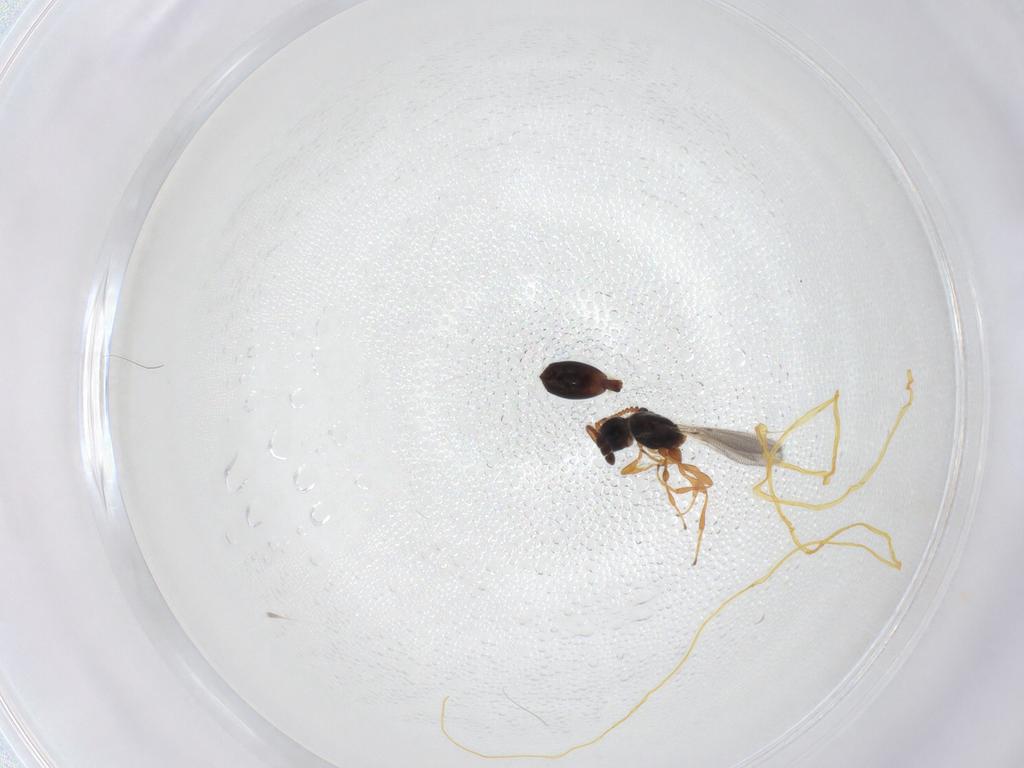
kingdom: Animalia
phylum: Arthropoda
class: Insecta
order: Hymenoptera
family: Diapriidae
